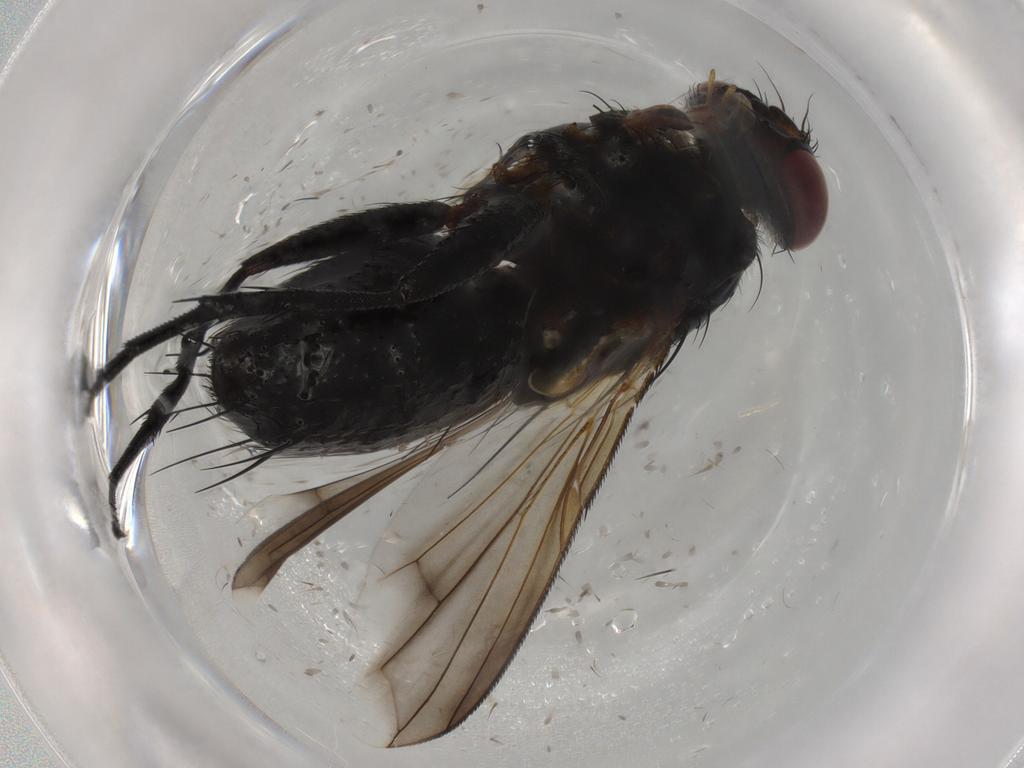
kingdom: Animalia
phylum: Arthropoda
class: Insecta
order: Diptera
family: Tachinidae
